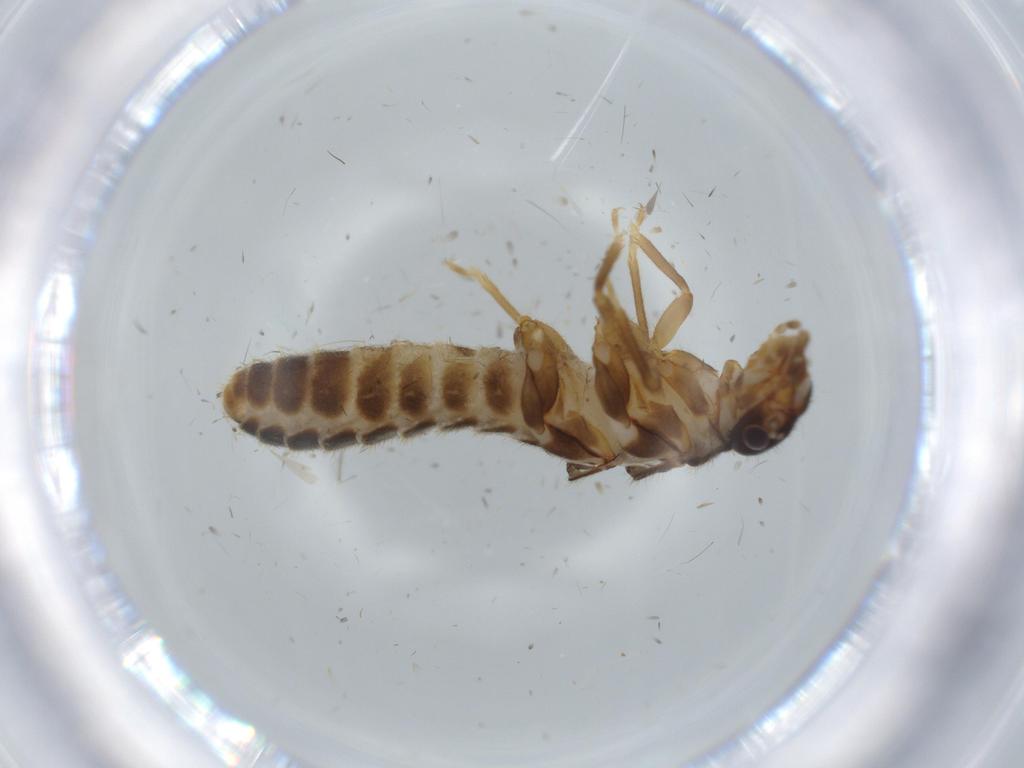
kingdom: Animalia
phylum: Arthropoda
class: Insecta
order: Blattodea
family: Termitidae
